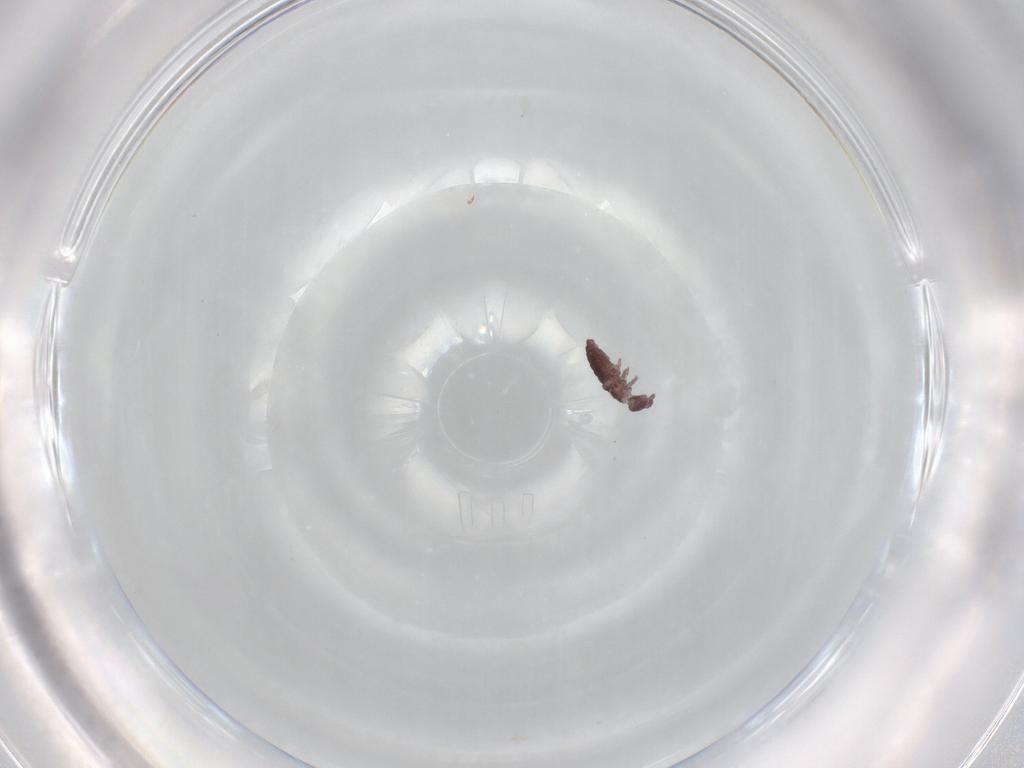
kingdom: Animalia
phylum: Arthropoda
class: Collembola
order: Poduromorpha
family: Hypogastruridae
